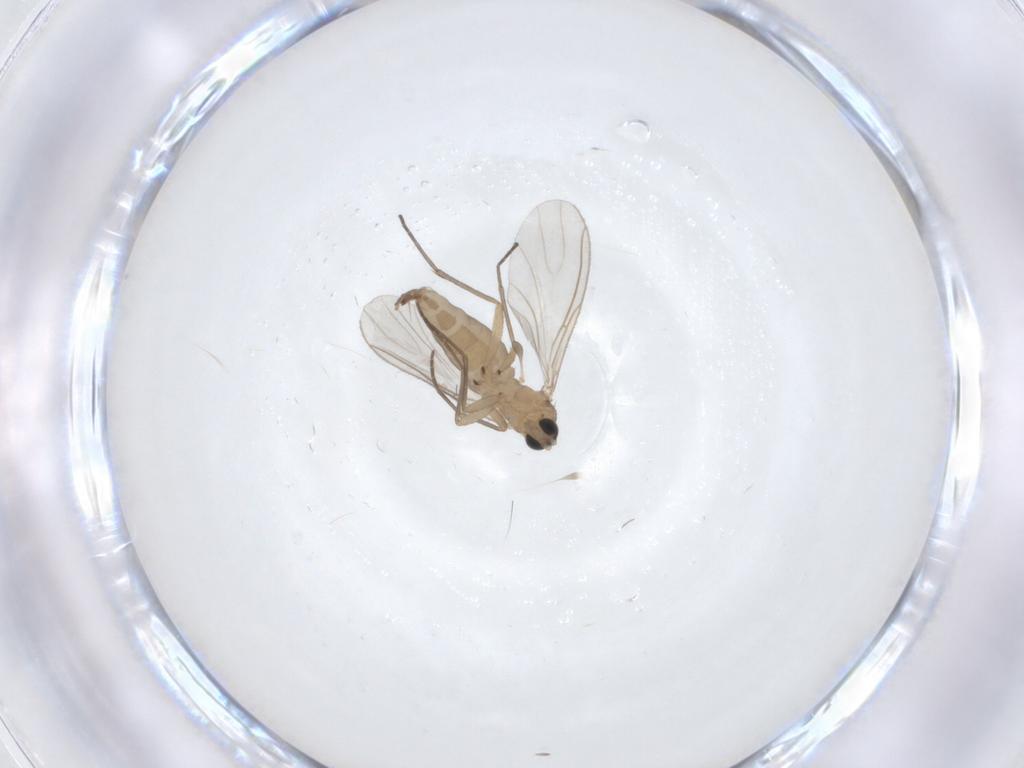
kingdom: Animalia
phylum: Arthropoda
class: Insecta
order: Diptera
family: Sciaridae
